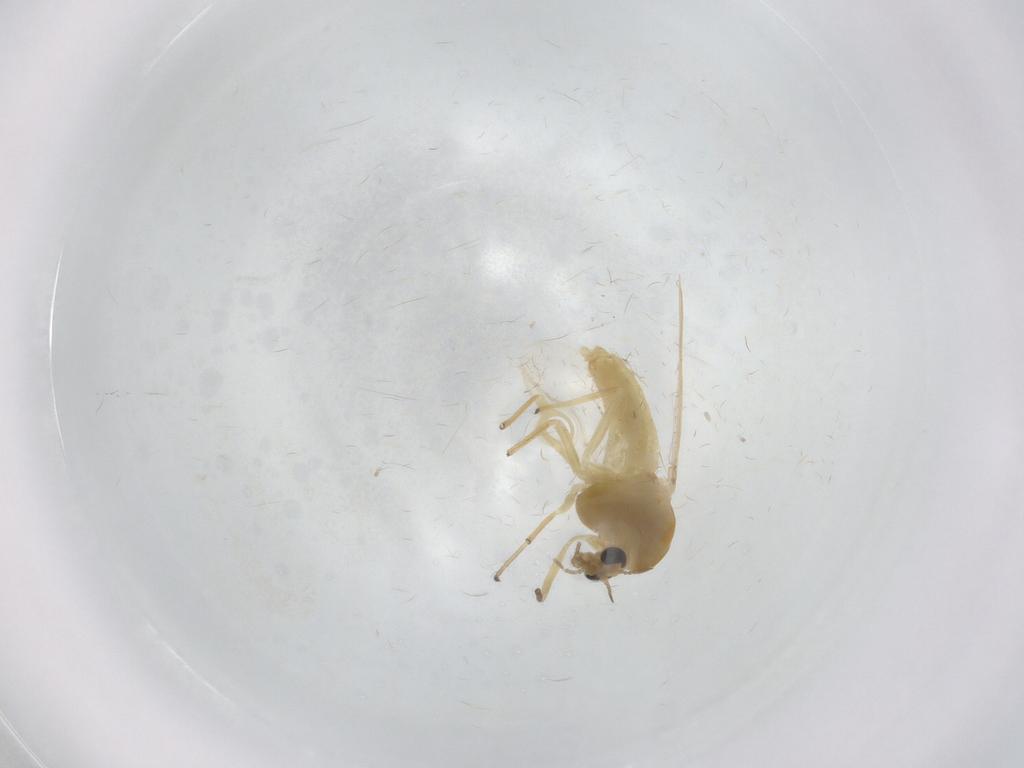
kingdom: Animalia
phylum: Arthropoda
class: Insecta
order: Diptera
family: Chironomidae
